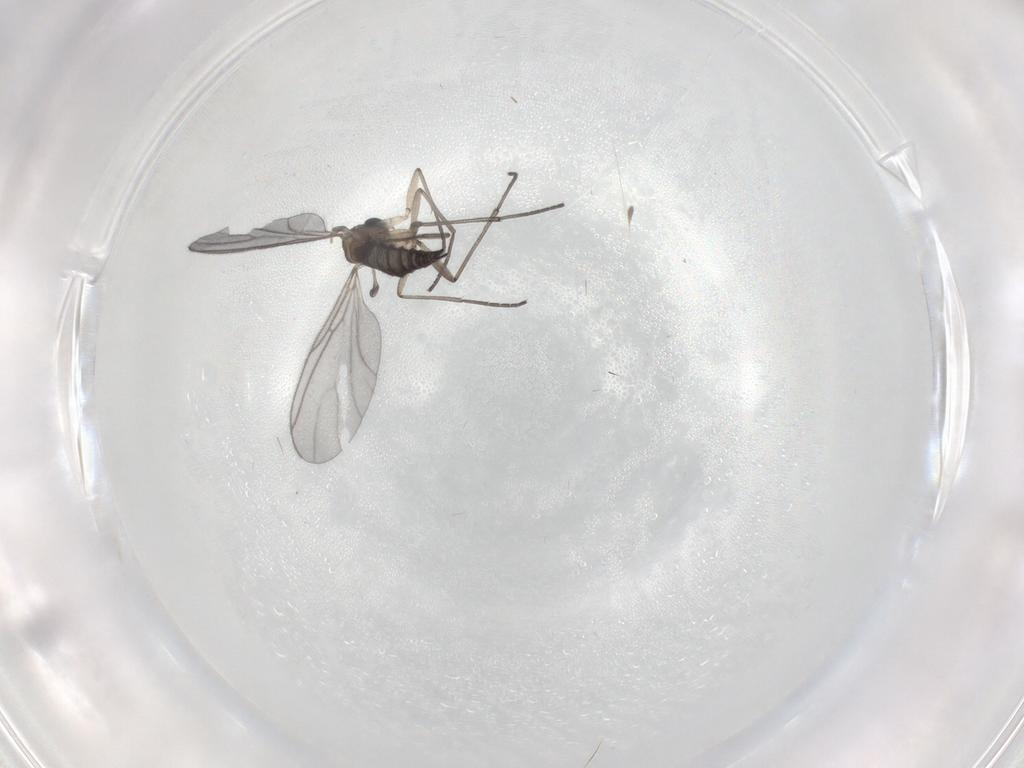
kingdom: Animalia
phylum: Arthropoda
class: Insecta
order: Diptera
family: Sciaridae
